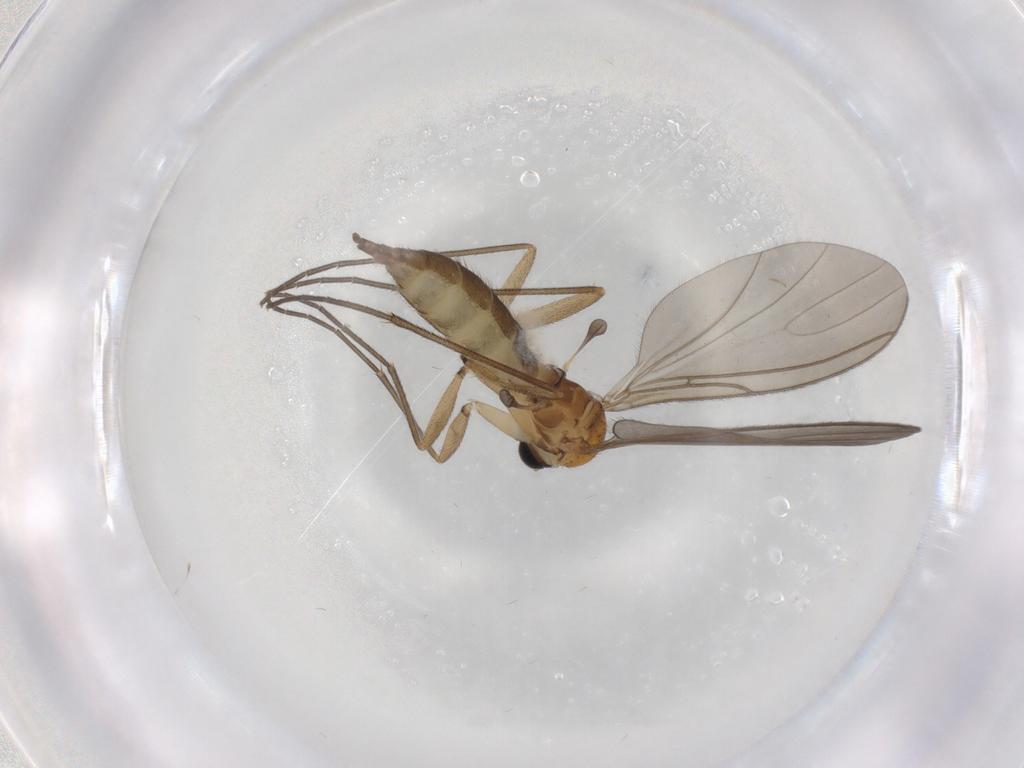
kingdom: Animalia
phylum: Arthropoda
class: Insecta
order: Diptera
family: Sciaridae
